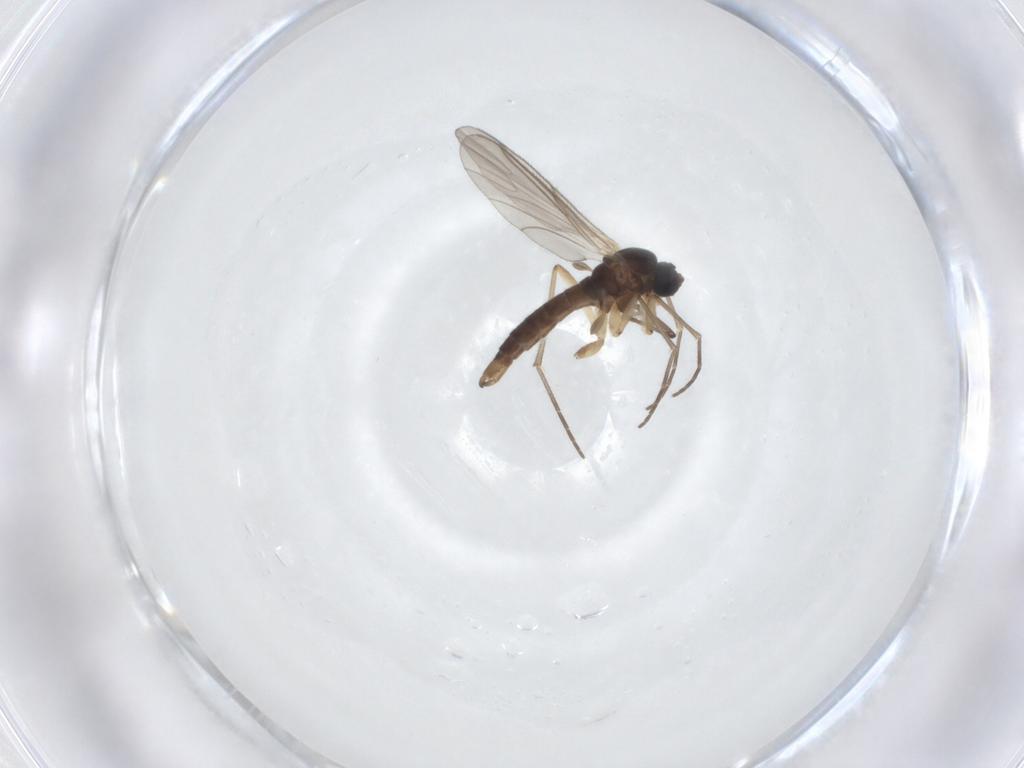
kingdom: Animalia
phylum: Arthropoda
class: Insecta
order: Diptera
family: Sciaridae
